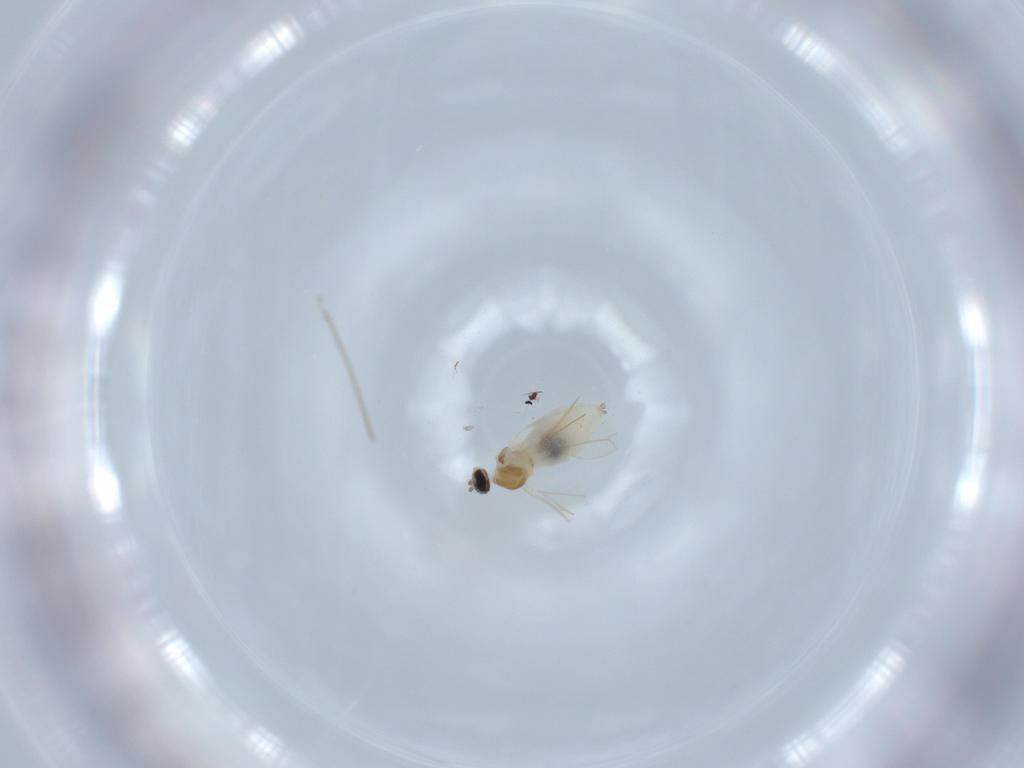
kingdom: Animalia
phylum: Arthropoda
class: Insecta
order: Diptera
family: Cecidomyiidae
